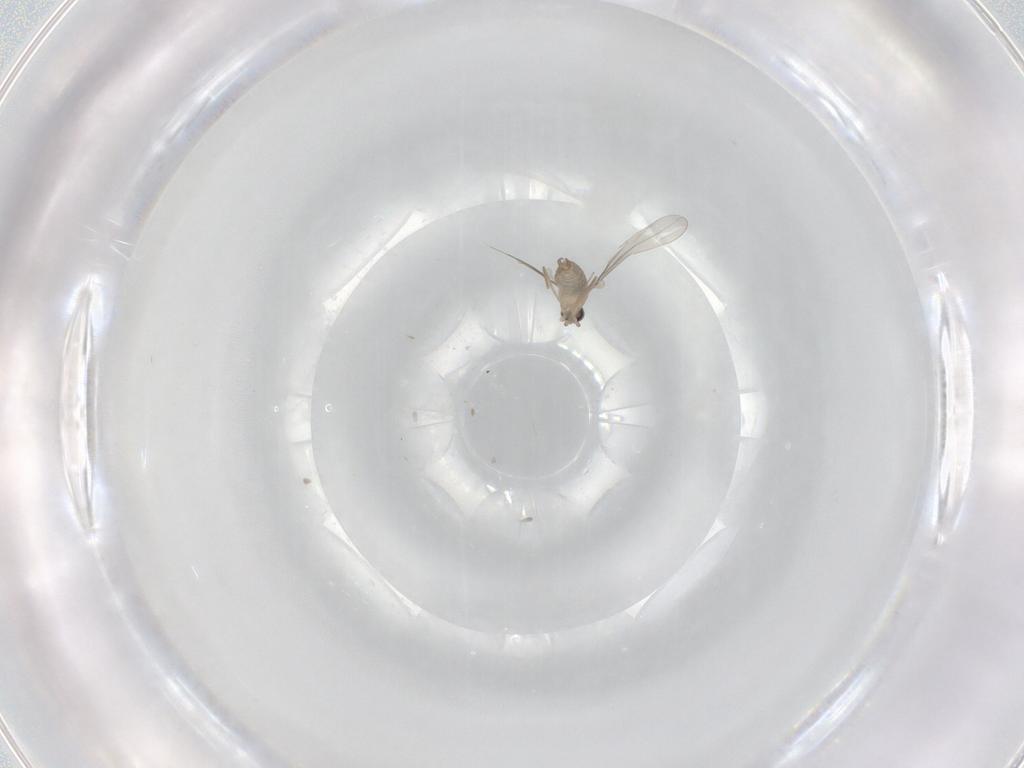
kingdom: Animalia
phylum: Arthropoda
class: Insecta
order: Diptera
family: Cecidomyiidae
